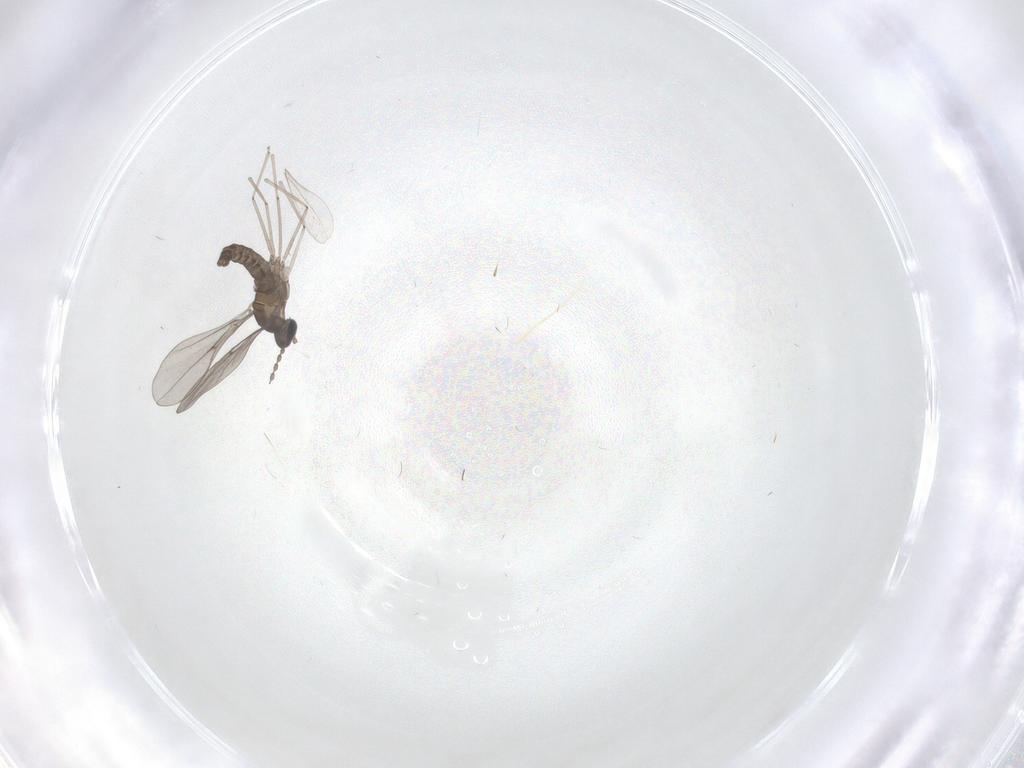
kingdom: Animalia
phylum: Arthropoda
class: Insecta
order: Diptera
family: Cecidomyiidae
